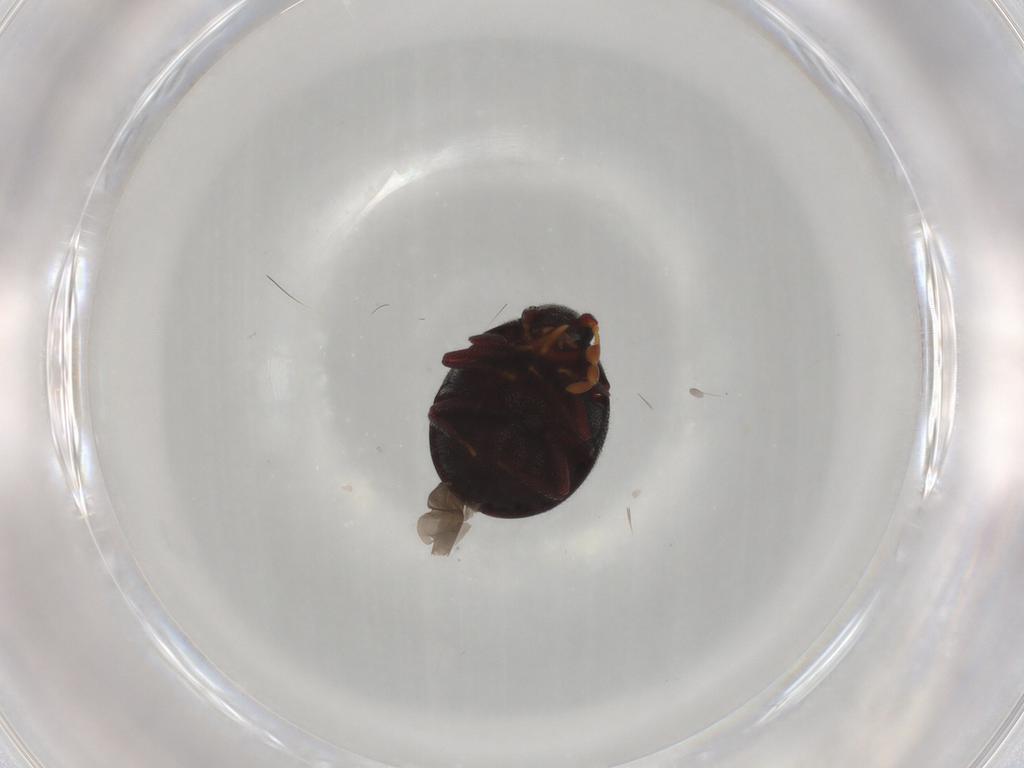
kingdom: Animalia
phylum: Arthropoda
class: Insecta
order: Coleoptera
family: Ptinidae
